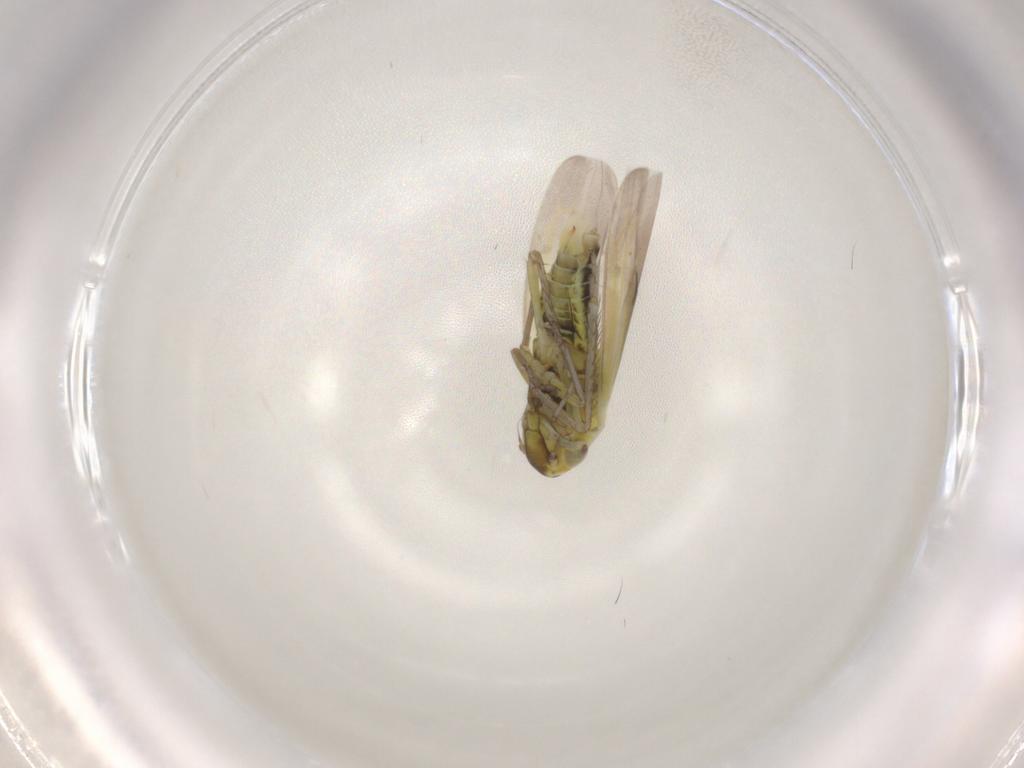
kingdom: Animalia
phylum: Arthropoda
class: Insecta
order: Hemiptera
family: Cicadellidae
